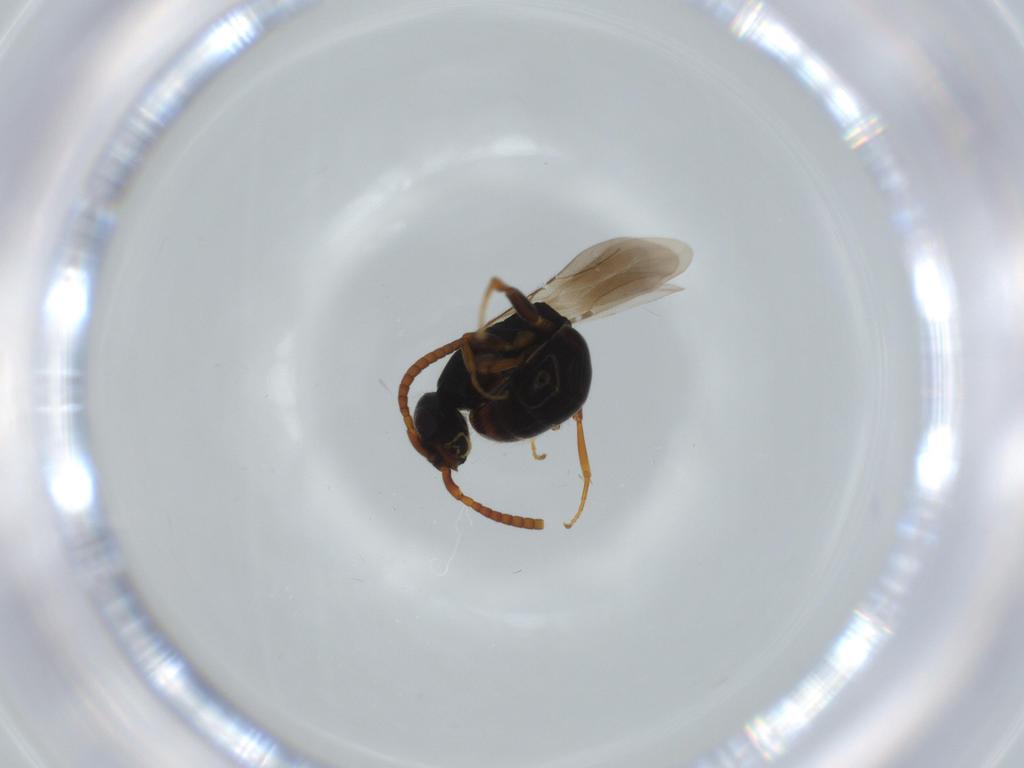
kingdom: Animalia
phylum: Arthropoda
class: Insecta
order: Hymenoptera
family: Bethylidae
